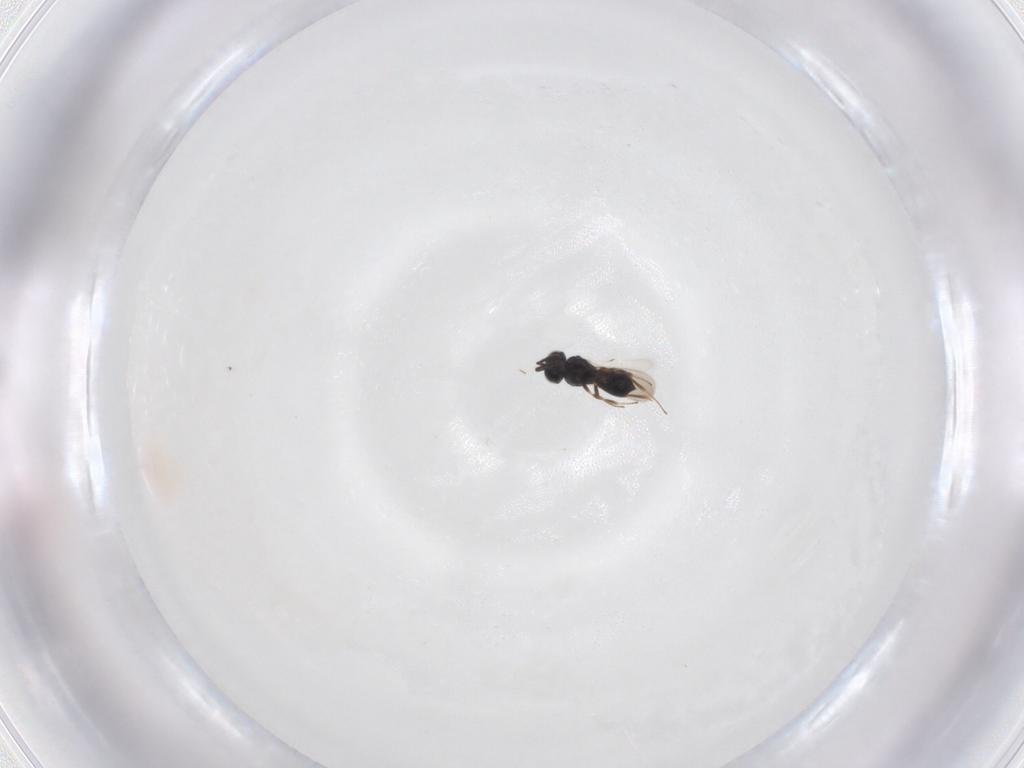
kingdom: Animalia
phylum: Arthropoda
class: Insecta
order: Hymenoptera
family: Scelionidae
